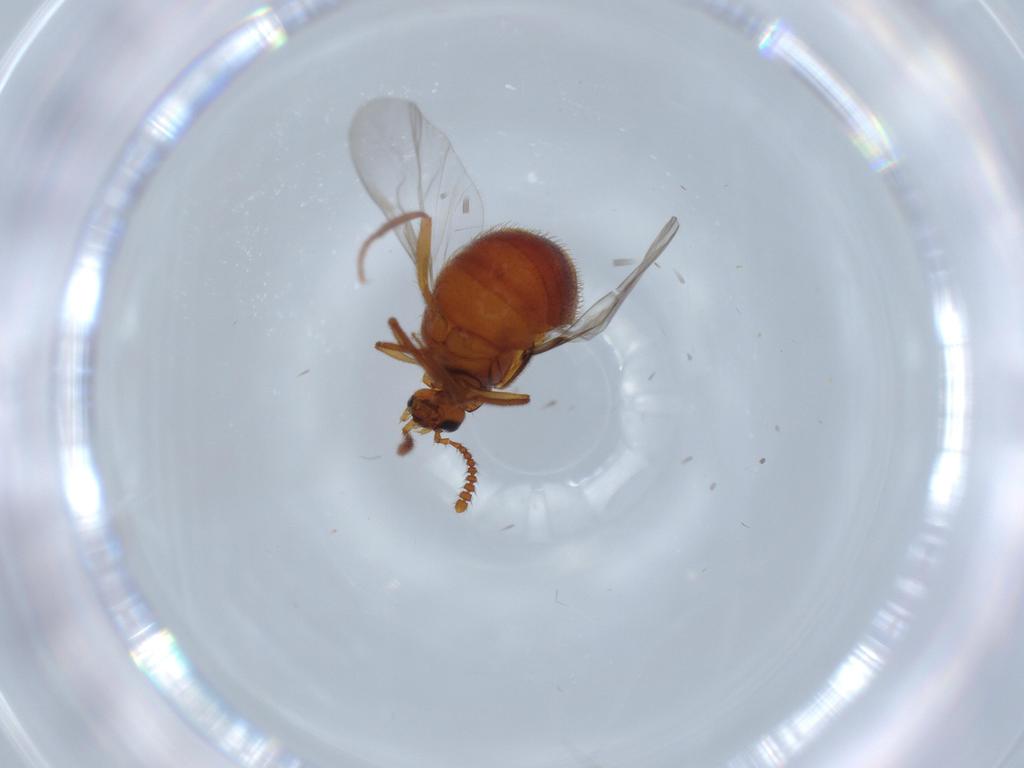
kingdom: Animalia
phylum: Arthropoda
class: Insecta
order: Coleoptera
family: Staphylinidae
